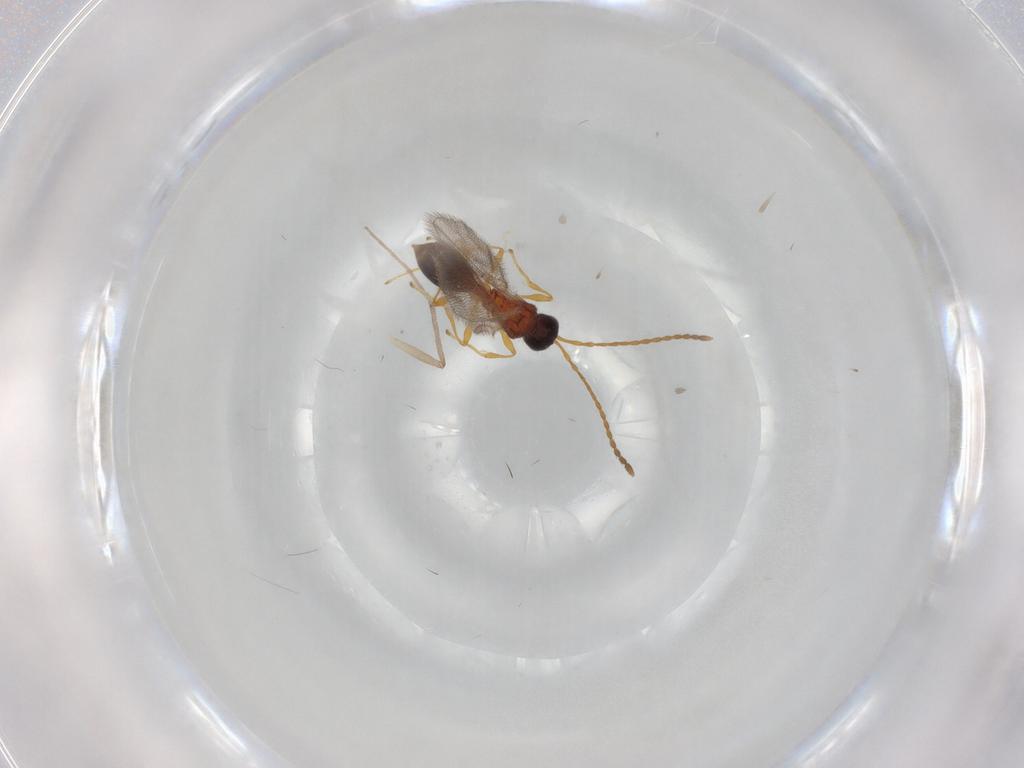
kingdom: Animalia
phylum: Arthropoda
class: Insecta
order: Hymenoptera
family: Diapriidae
